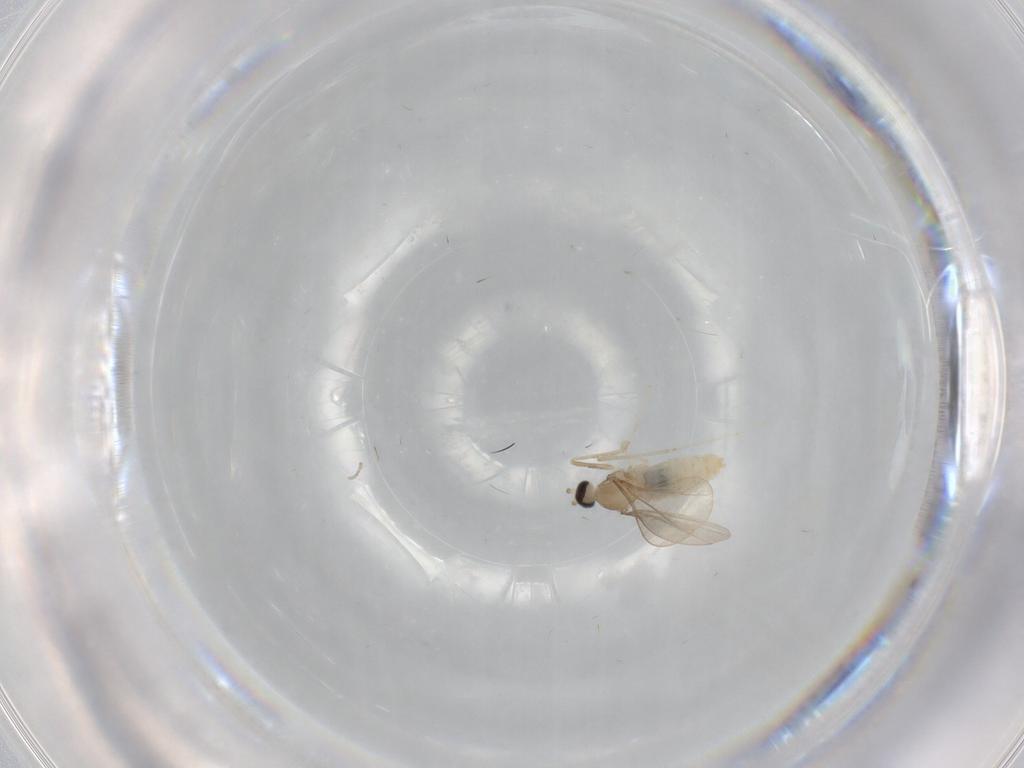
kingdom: Animalia
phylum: Arthropoda
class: Insecta
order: Diptera
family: Cecidomyiidae
